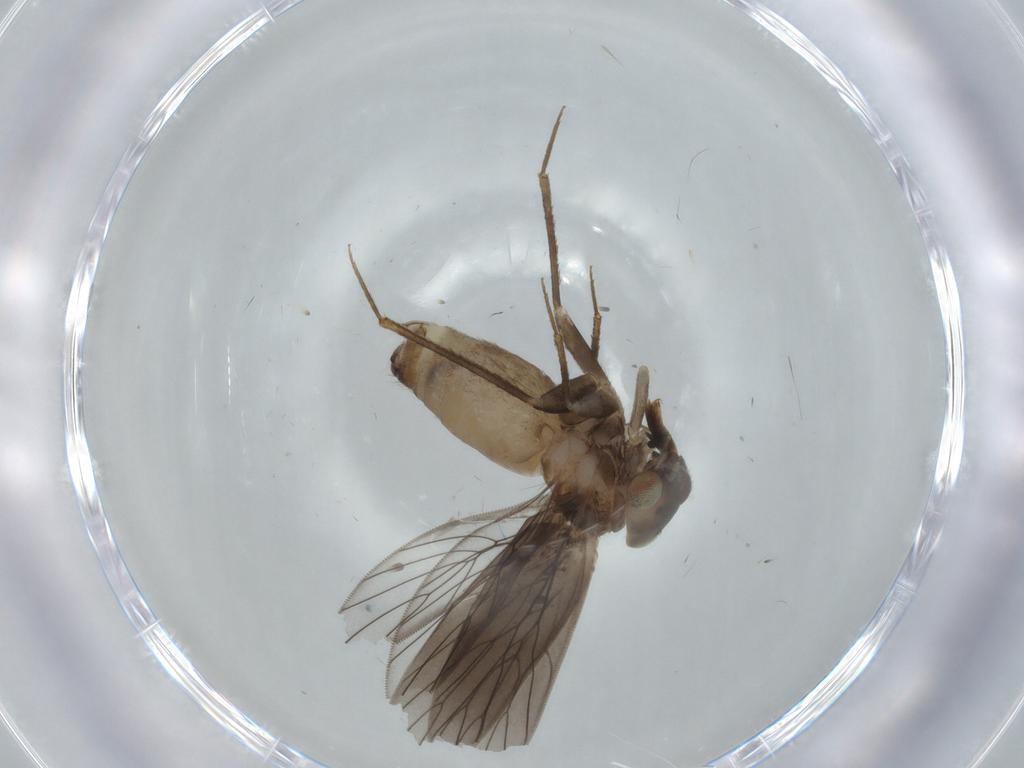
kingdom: Animalia
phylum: Arthropoda
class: Insecta
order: Psocodea
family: Lepidopsocidae
